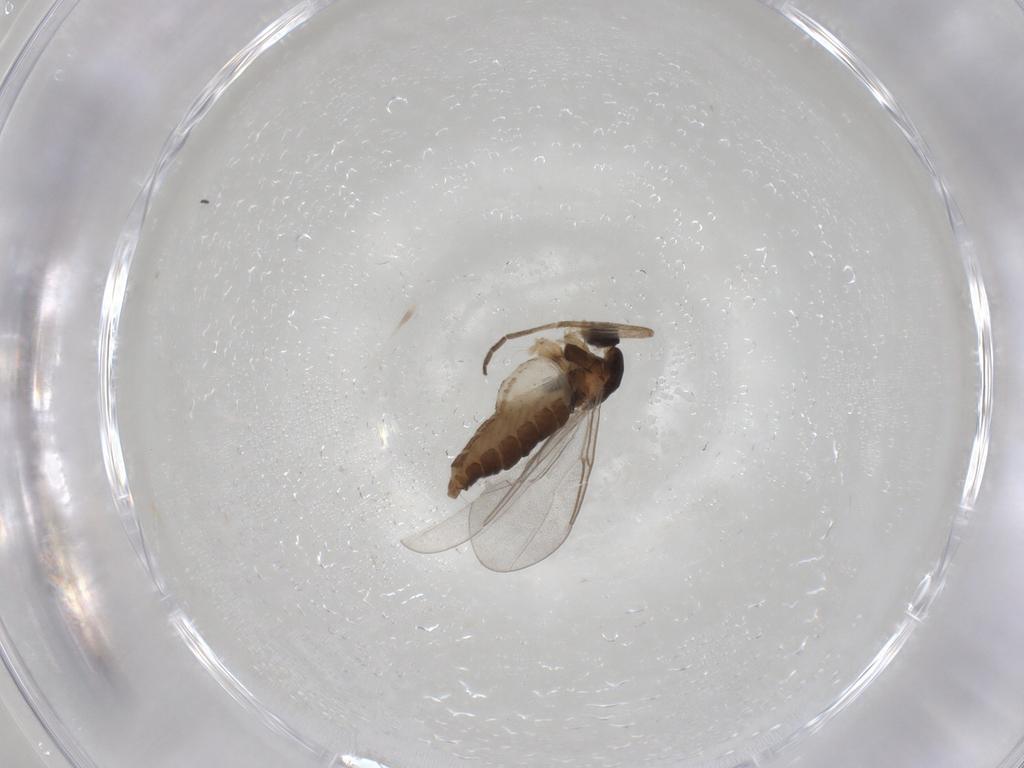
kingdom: Animalia
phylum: Arthropoda
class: Insecta
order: Diptera
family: Cecidomyiidae
